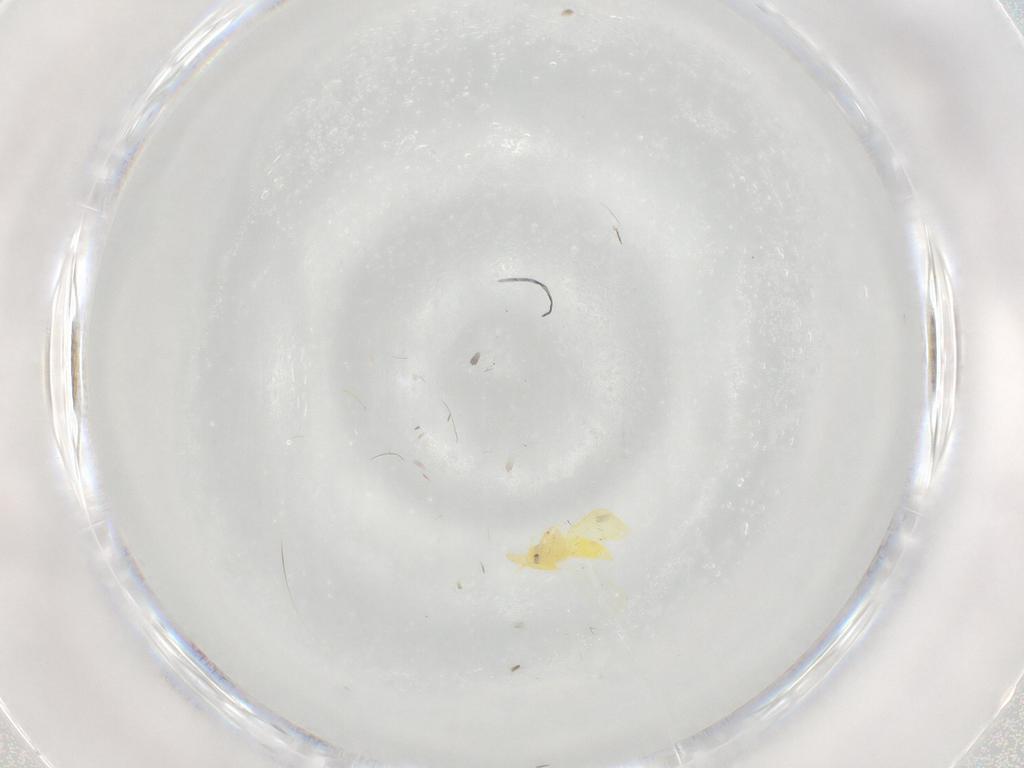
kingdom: Animalia
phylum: Arthropoda
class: Insecta
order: Hemiptera
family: Aleyrodidae
